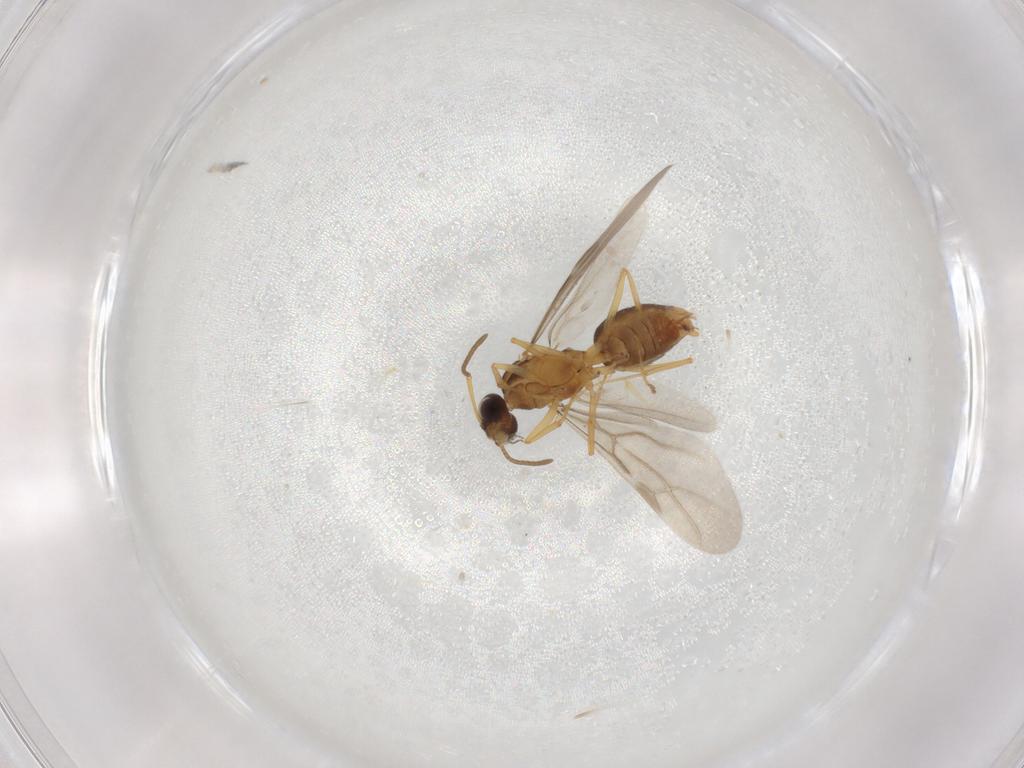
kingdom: Animalia
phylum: Arthropoda
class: Insecta
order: Hymenoptera
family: Formicidae
